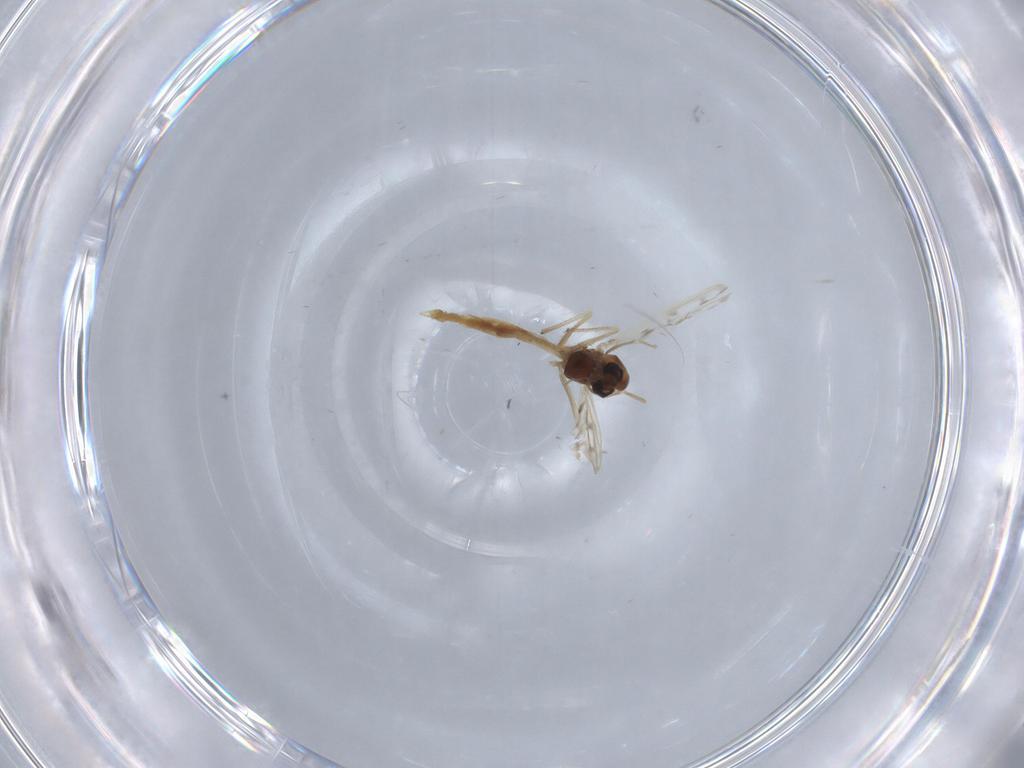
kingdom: Animalia
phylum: Arthropoda
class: Insecta
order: Diptera
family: Chironomidae
